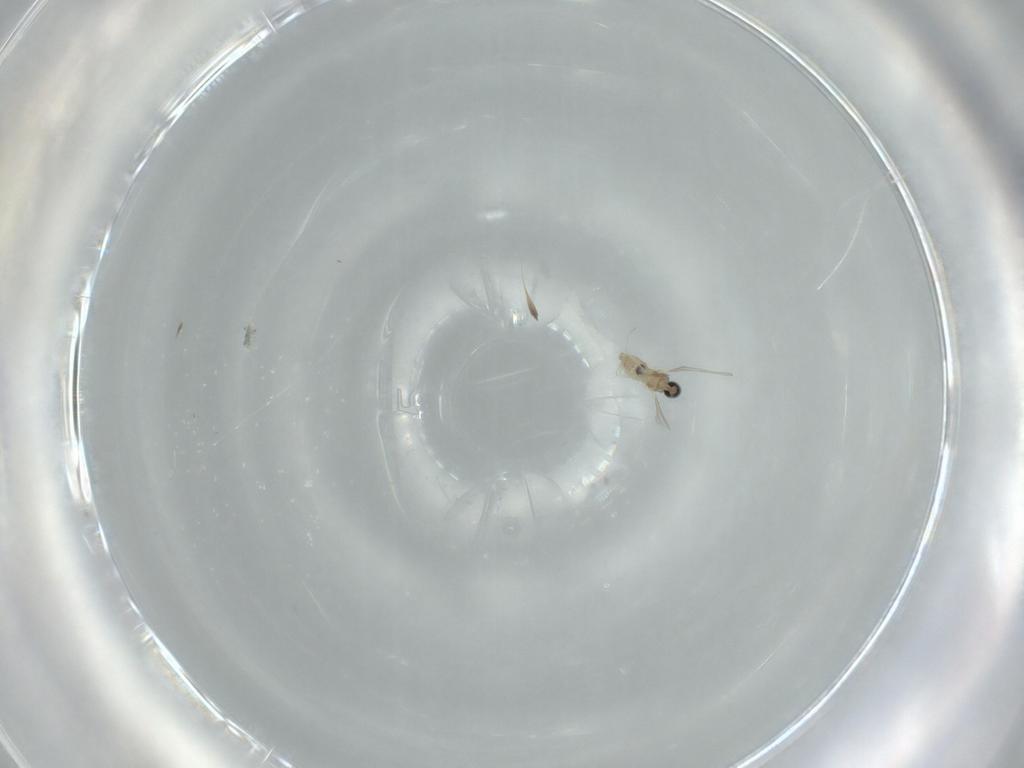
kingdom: Animalia
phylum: Arthropoda
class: Insecta
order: Diptera
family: Cecidomyiidae
